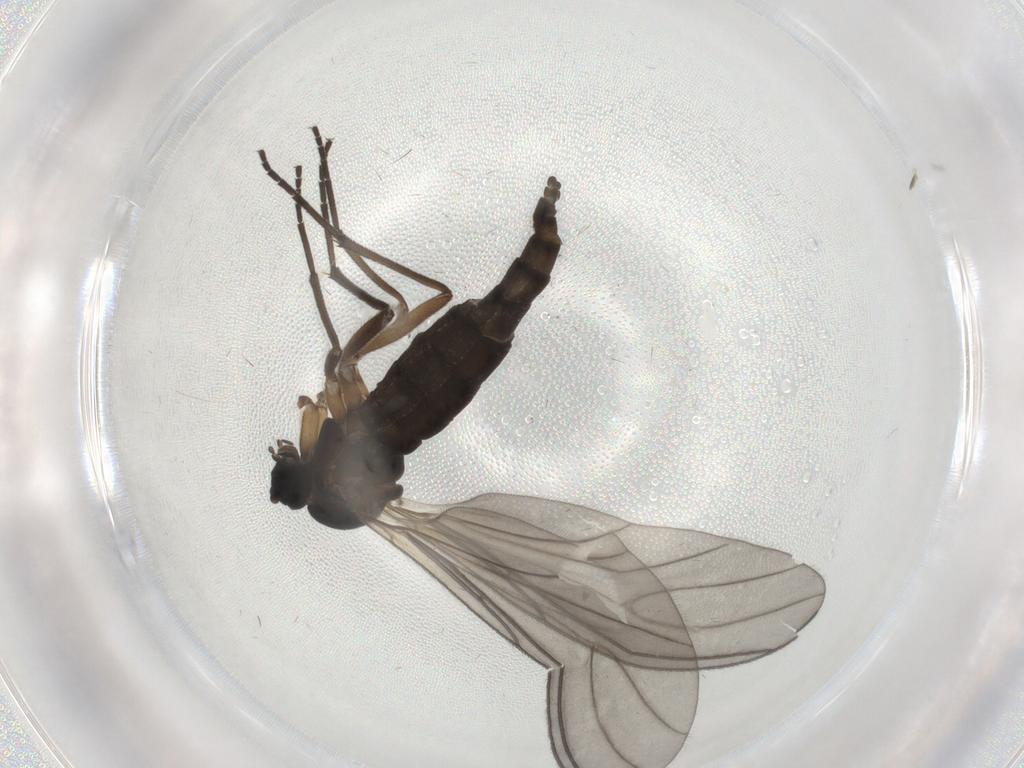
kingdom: Animalia
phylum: Arthropoda
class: Insecta
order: Diptera
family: Sciaridae
